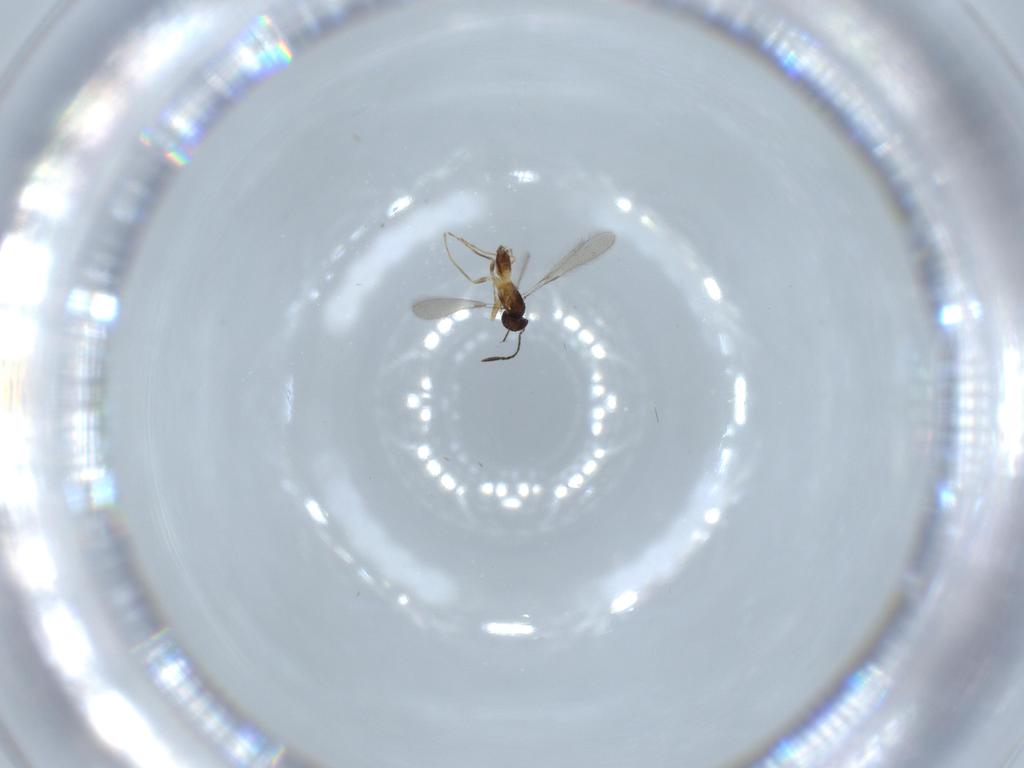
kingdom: Animalia
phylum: Arthropoda
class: Insecta
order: Hymenoptera
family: Mymaridae
